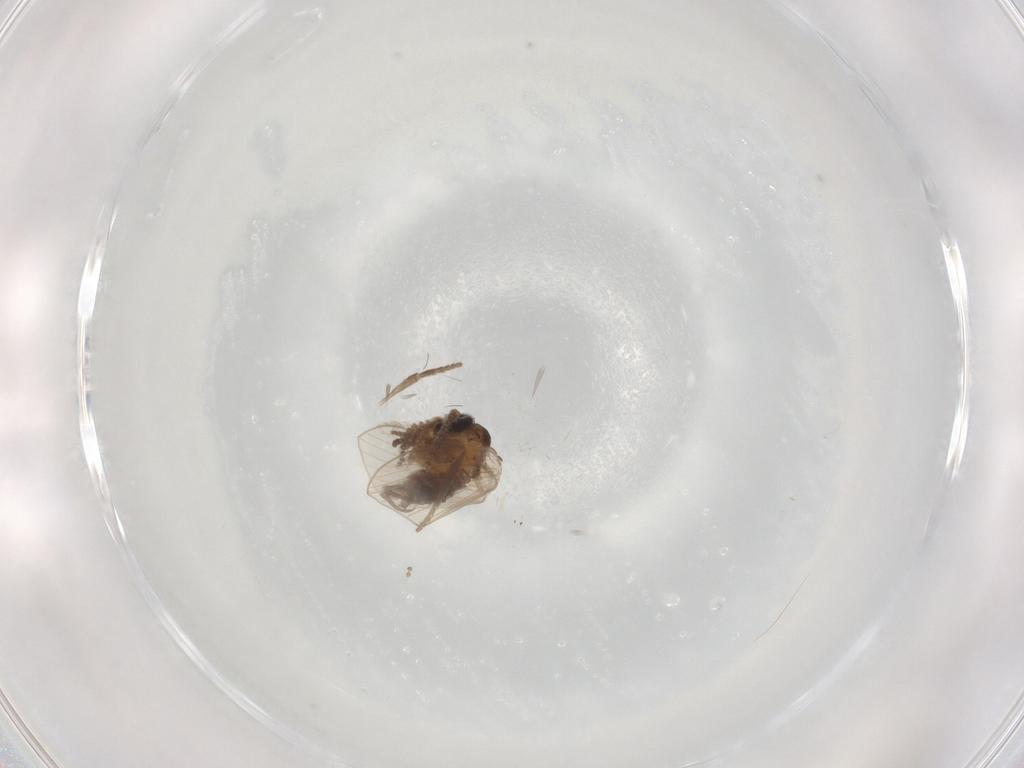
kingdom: Animalia
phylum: Arthropoda
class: Insecta
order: Diptera
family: Psychodidae
